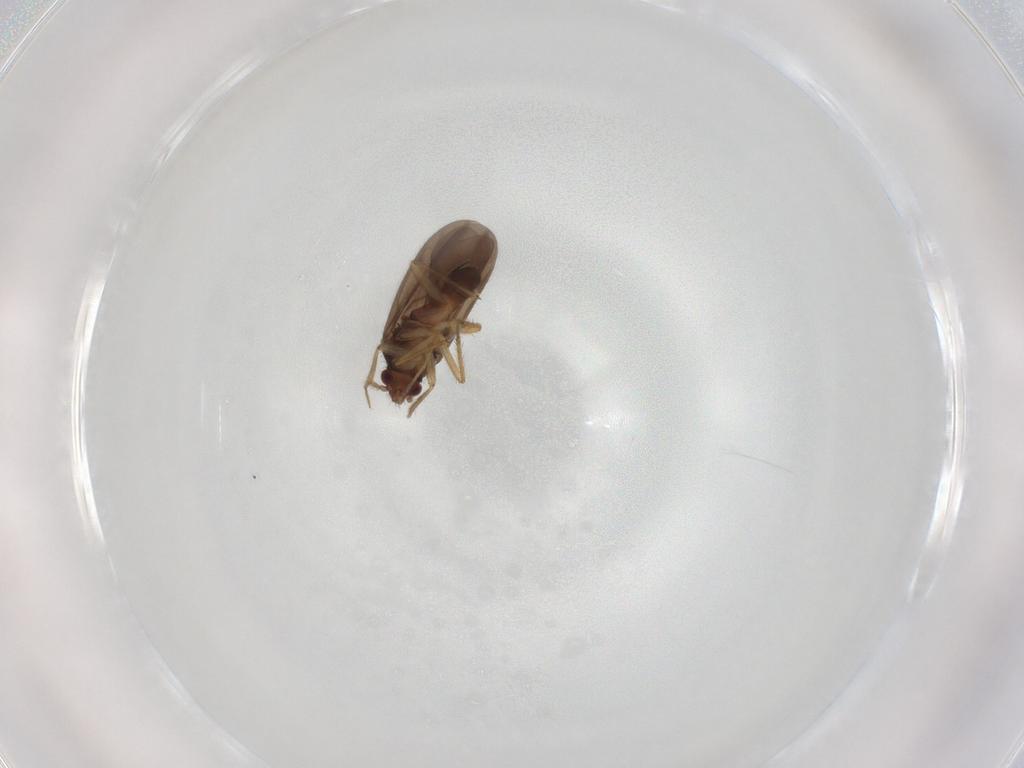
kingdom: Animalia
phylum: Arthropoda
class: Insecta
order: Hemiptera
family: Ceratocombidae
